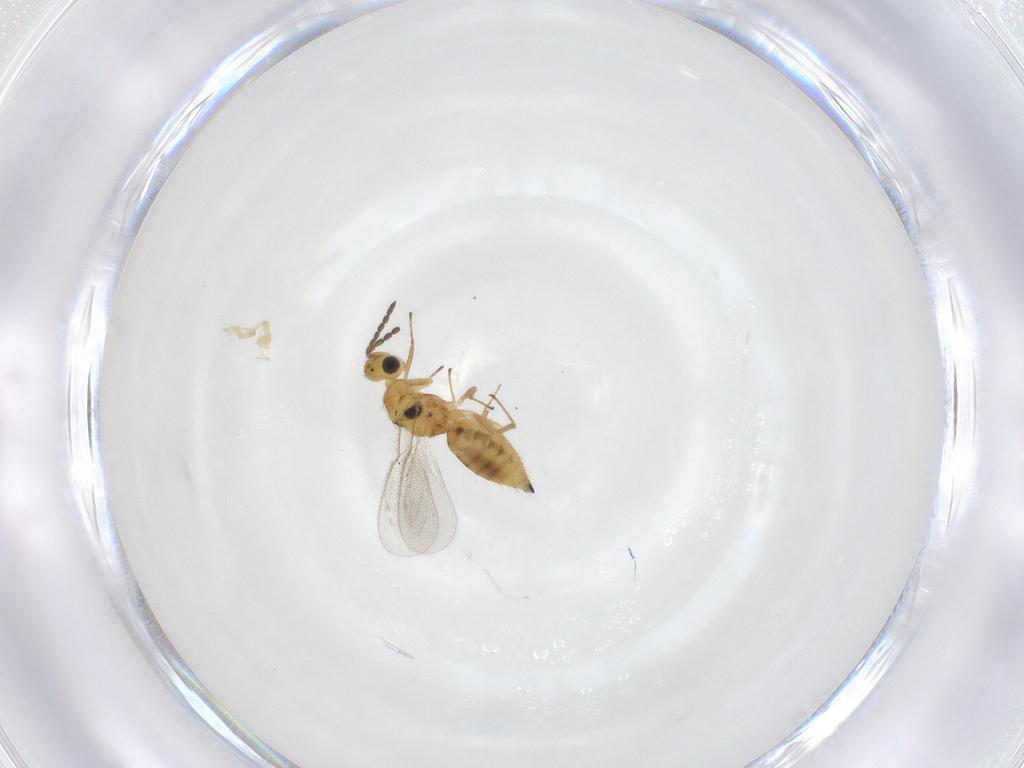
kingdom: Animalia
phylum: Arthropoda
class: Insecta
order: Hymenoptera
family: Eulophidae
